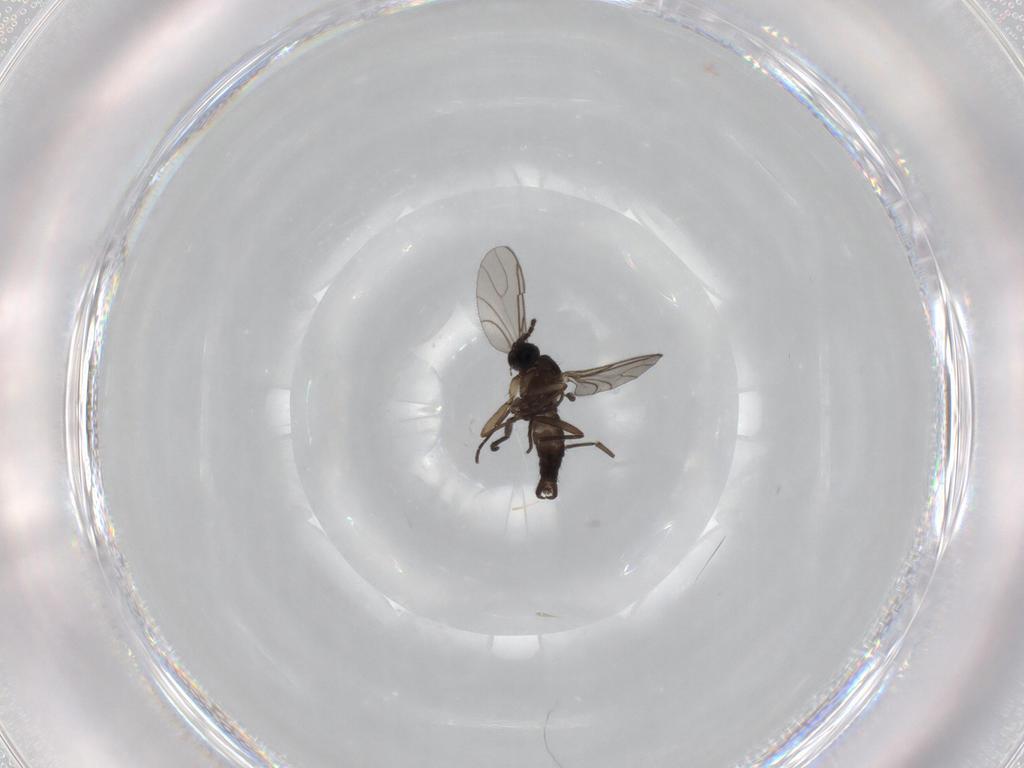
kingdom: Animalia
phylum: Arthropoda
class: Insecta
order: Diptera
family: Sciaridae
